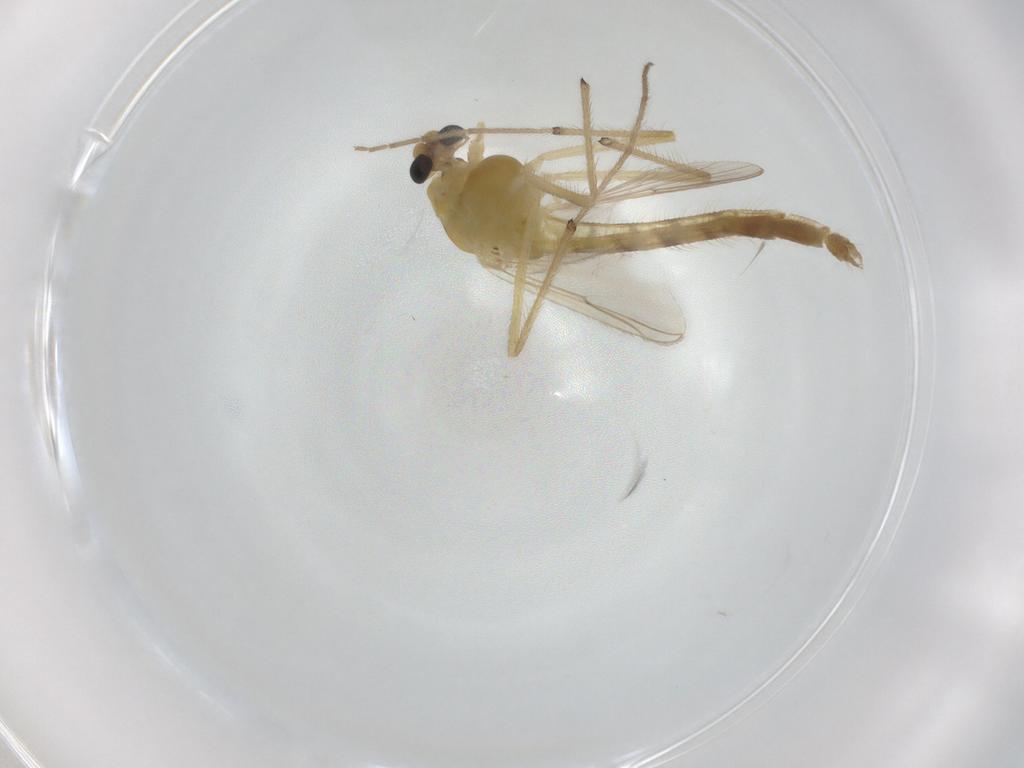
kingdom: Animalia
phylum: Arthropoda
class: Insecta
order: Diptera
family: Chironomidae
